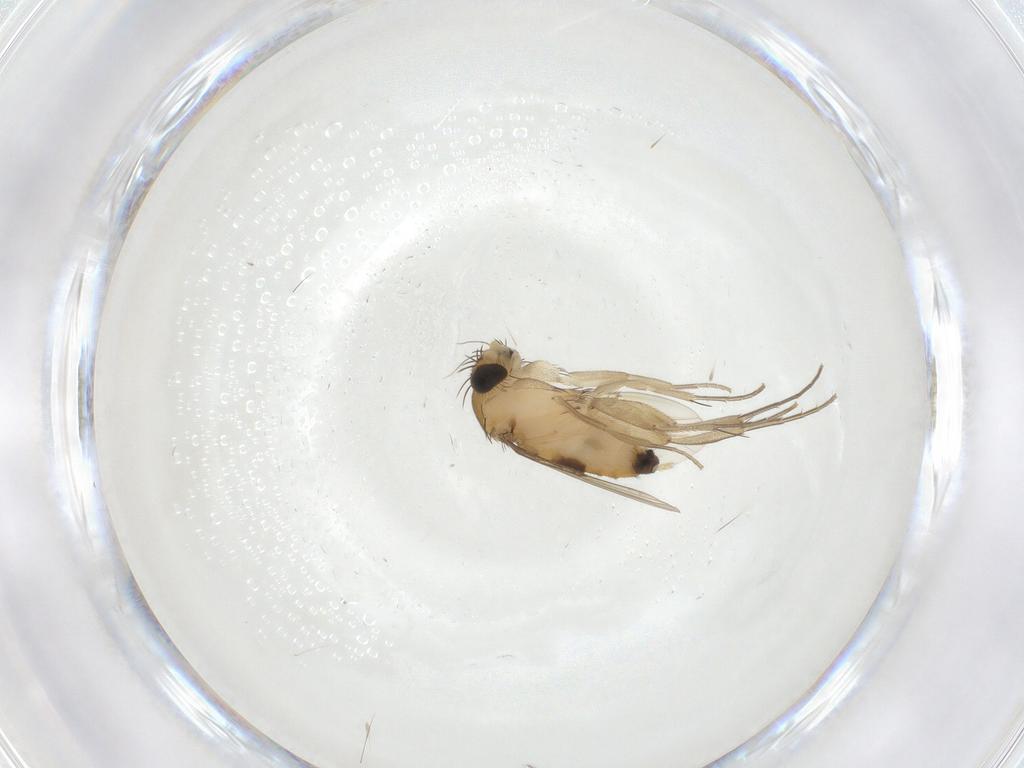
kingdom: Animalia
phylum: Arthropoda
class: Insecta
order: Diptera
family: Phoridae
